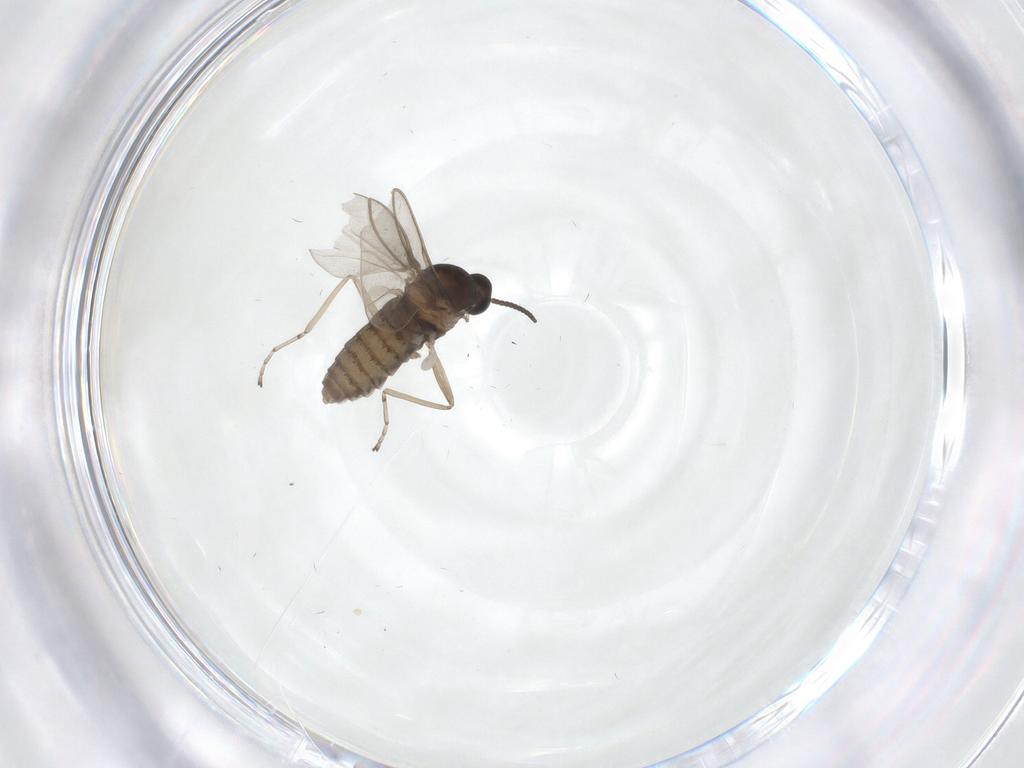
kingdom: Animalia
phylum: Arthropoda
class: Insecta
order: Diptera
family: Cecidomyiidae
